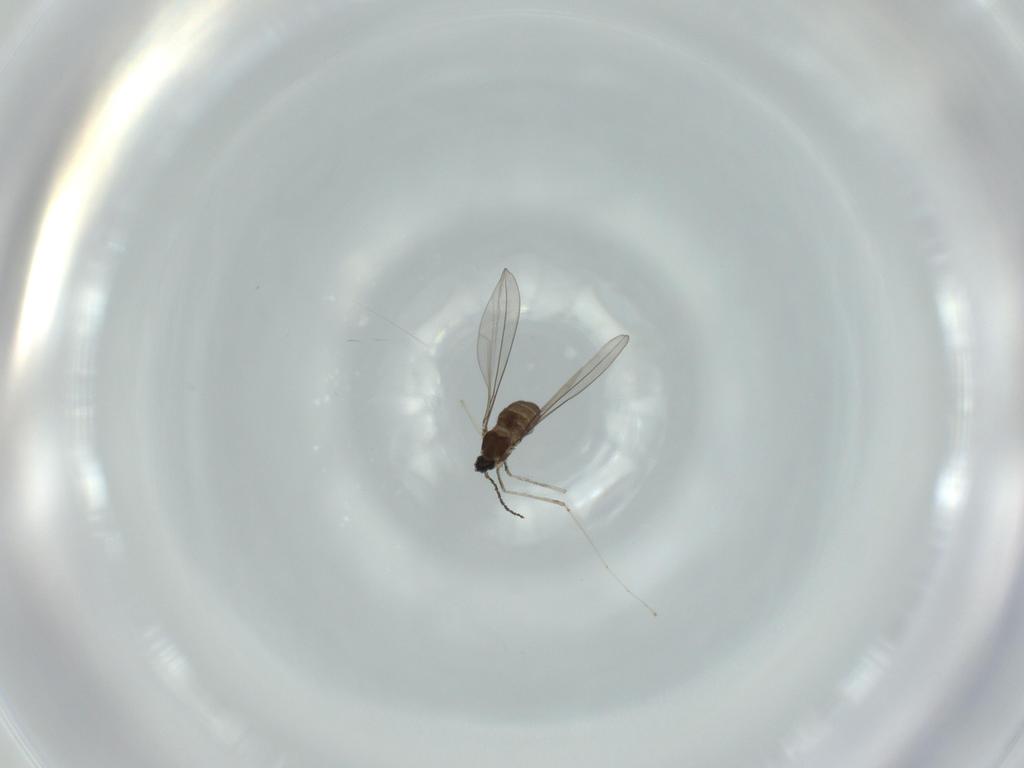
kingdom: Animalia
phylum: Arthropoda
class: Insecta
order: Diptera
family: Cecidomyiidae
